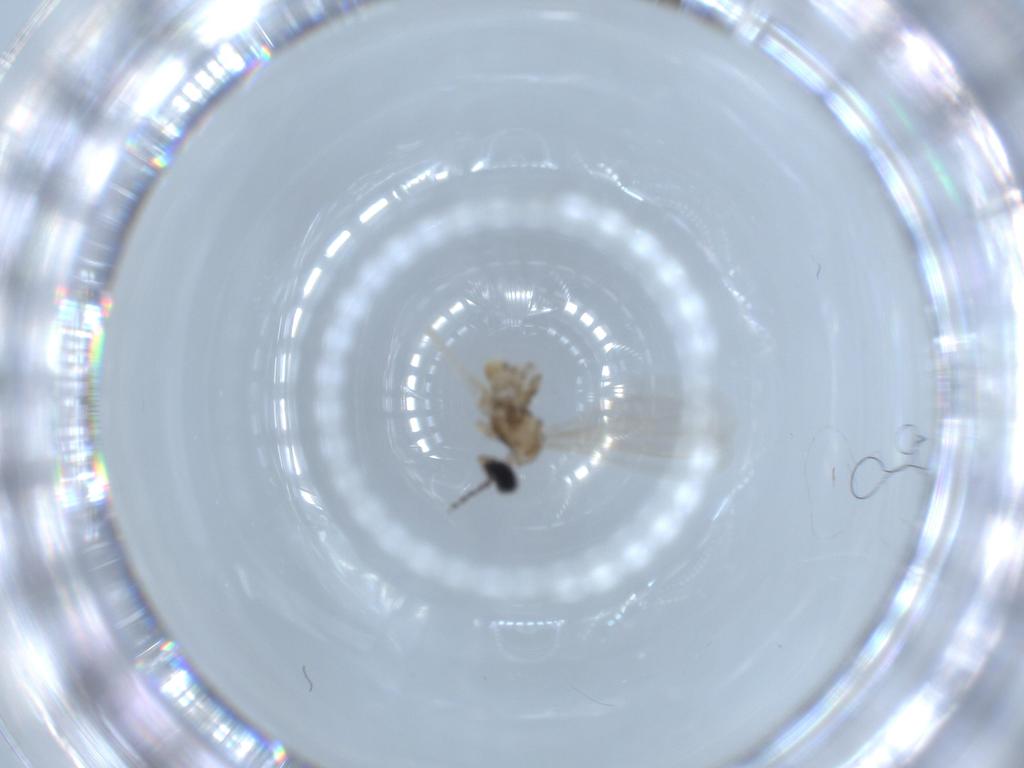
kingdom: Animalia
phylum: Arthropoda
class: Insecta
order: Diptera
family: Cecidomyiidae
